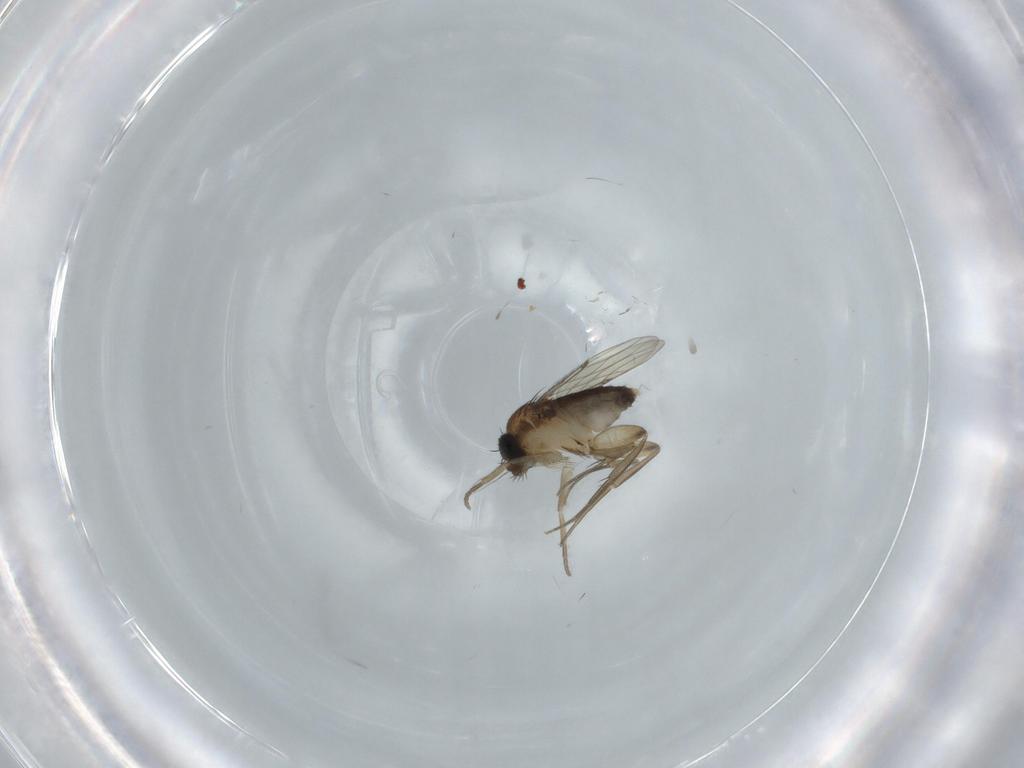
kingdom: Animalia
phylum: Arthropoda
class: Insecta
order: Diptera
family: Phoridae
